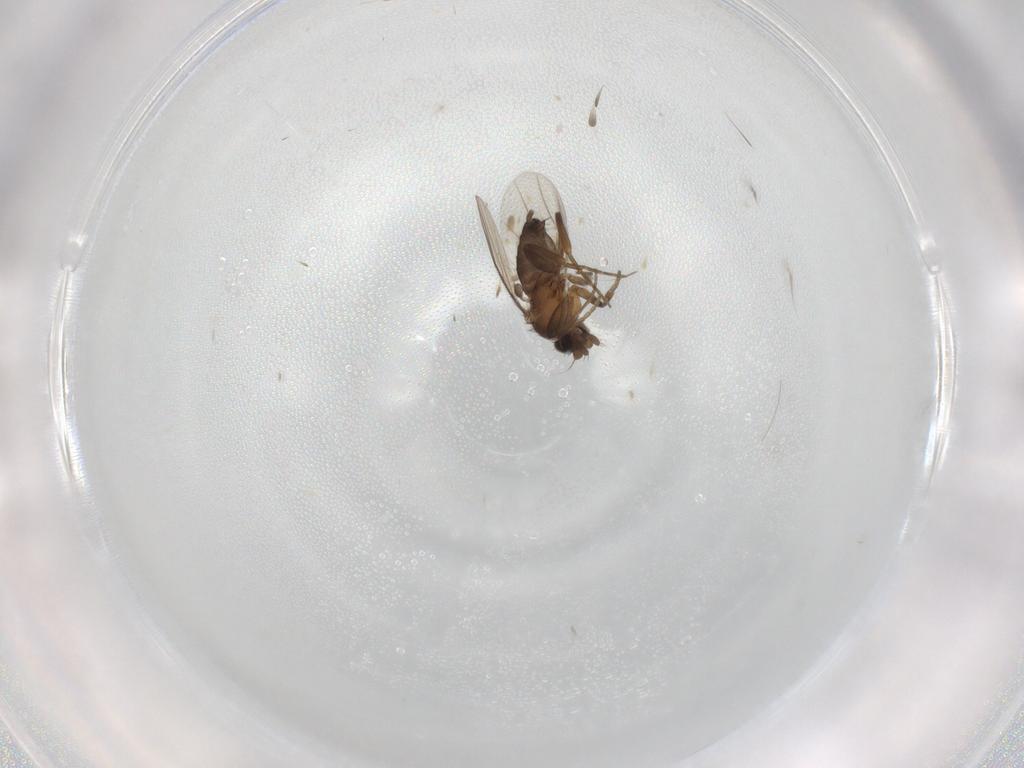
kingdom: Animalia
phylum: Arthropoda
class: Insecta
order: Diptera
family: Phoridae
